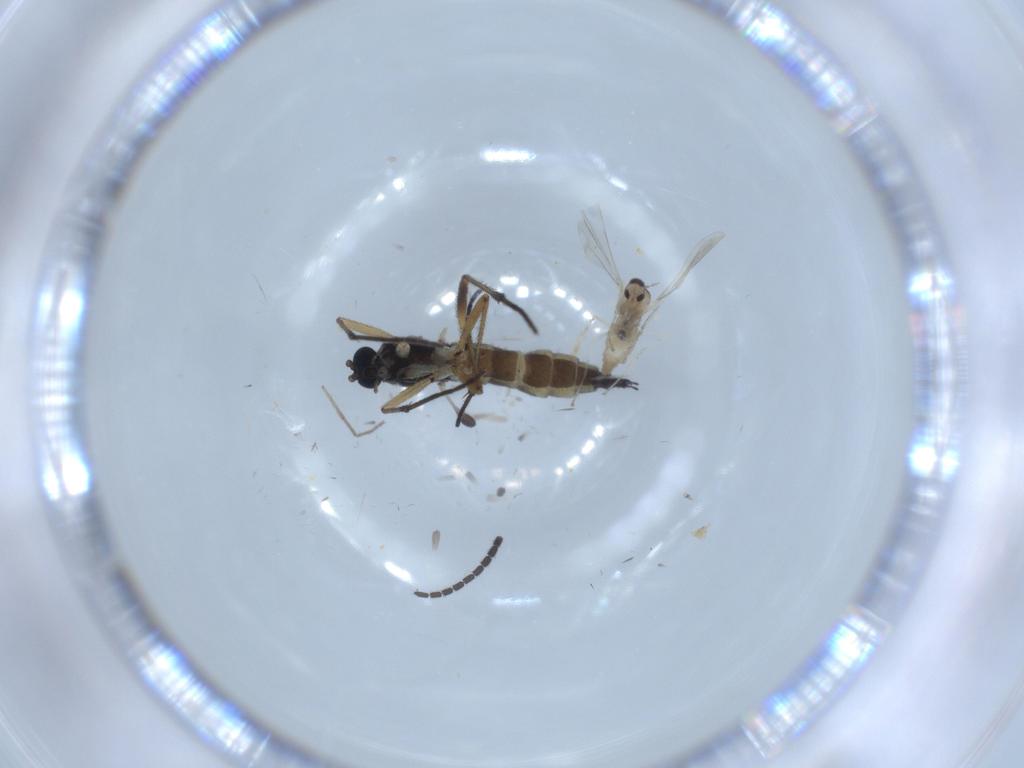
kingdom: Animalia
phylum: Arthropoda
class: Insecta
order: Diptera
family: Sciaridae
